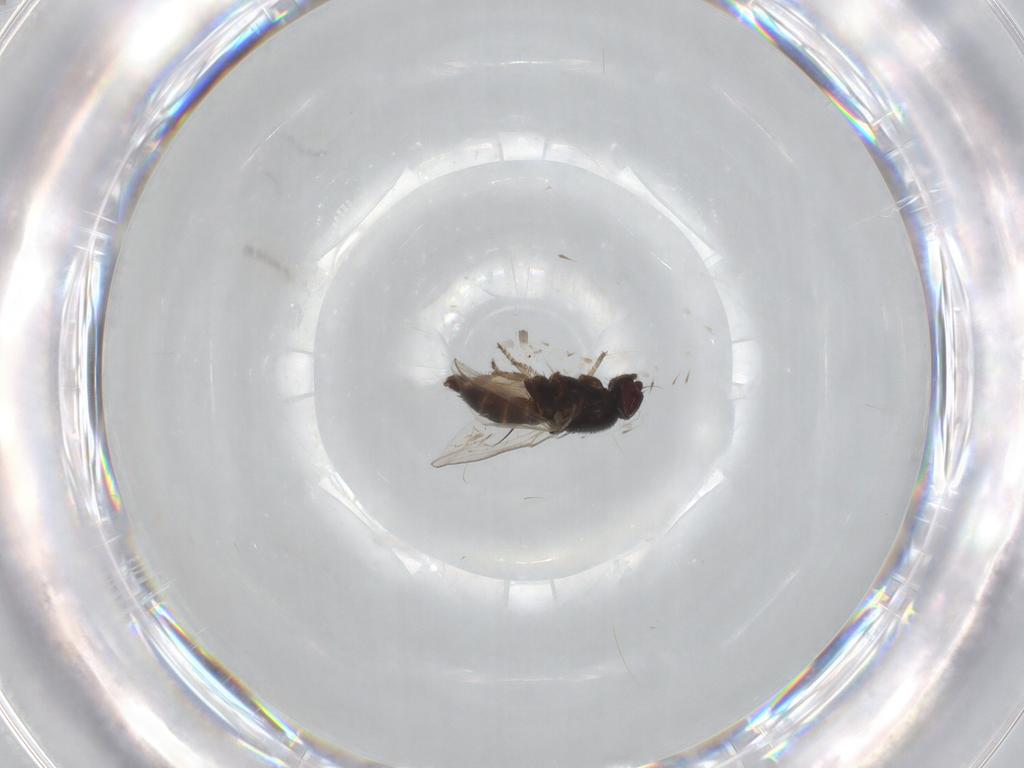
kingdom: Animalia
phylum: Arthropoda
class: Insecta
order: Diptera
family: Milichiidae
